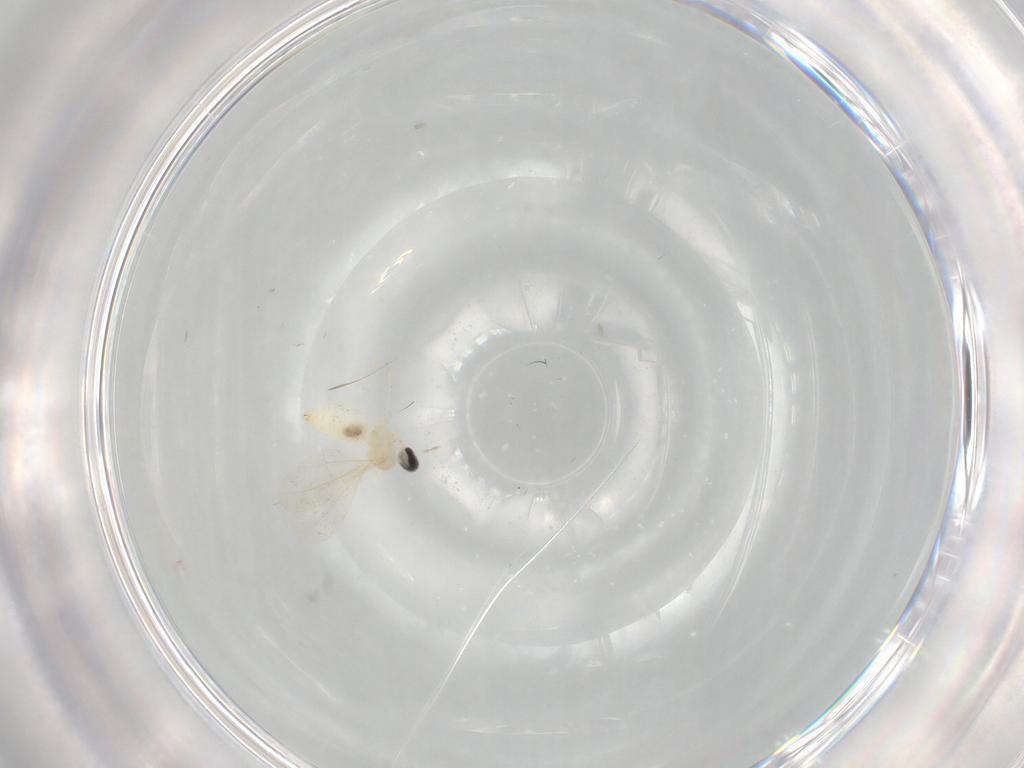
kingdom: Animalia
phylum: Arthropoda
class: Insecta
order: Diptera
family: Cecidomyiidae
